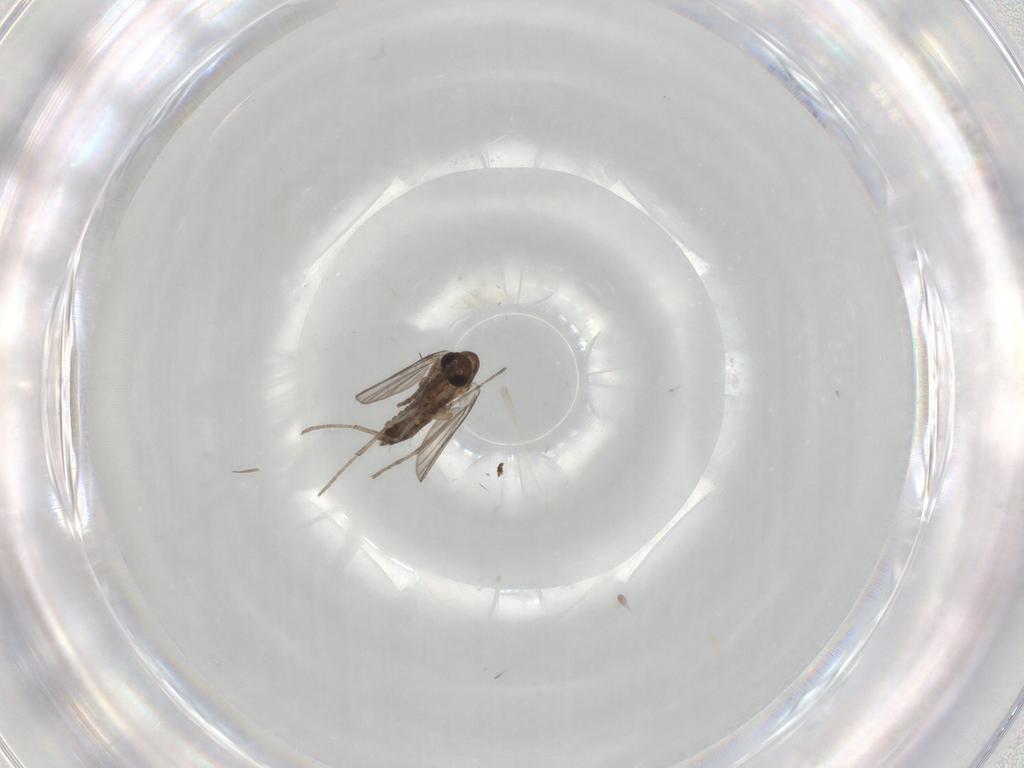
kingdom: Animalia
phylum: Arthropoda
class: Insecta
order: Diptera
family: Cecidomyiidae
